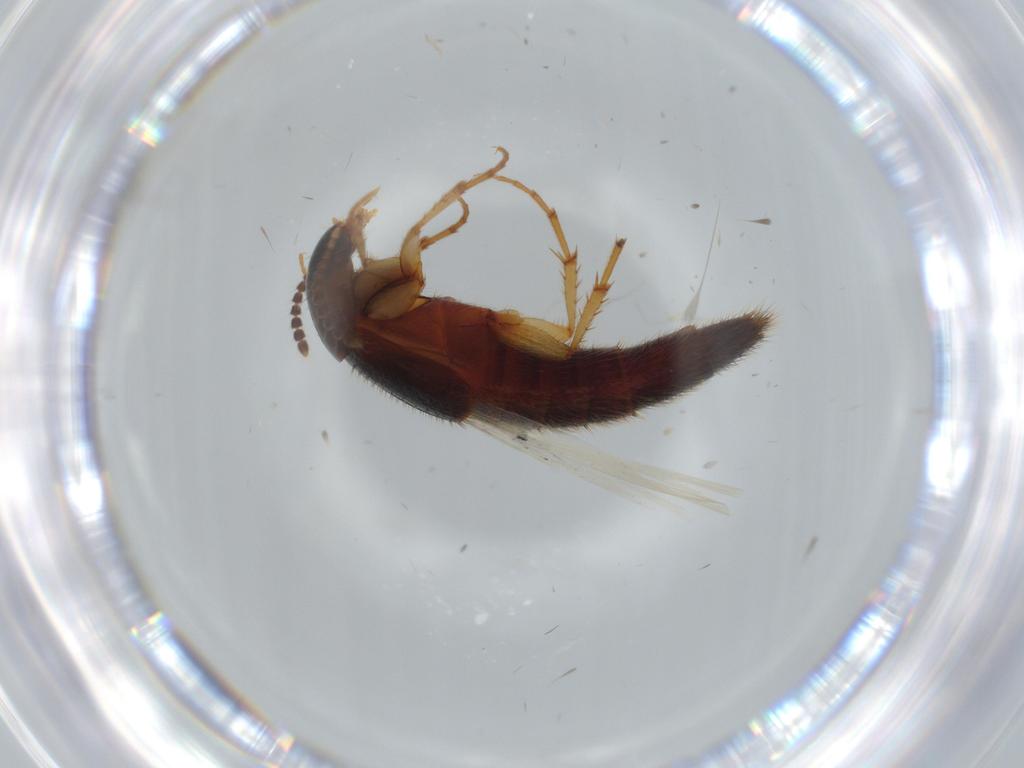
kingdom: Animalia
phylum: Arthropoda
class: Insecta
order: Coleoptera
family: Staphylinidae
